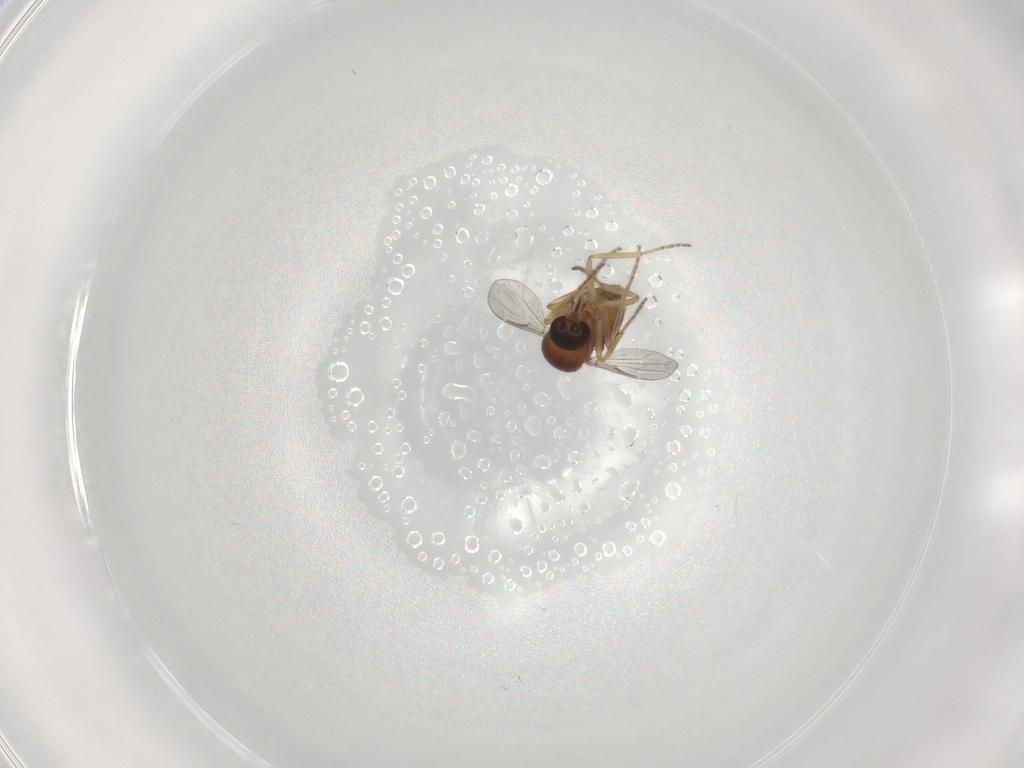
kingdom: Animalia
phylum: Arthropoda
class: Insecta
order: Diptera
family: Ceratopogonidae
